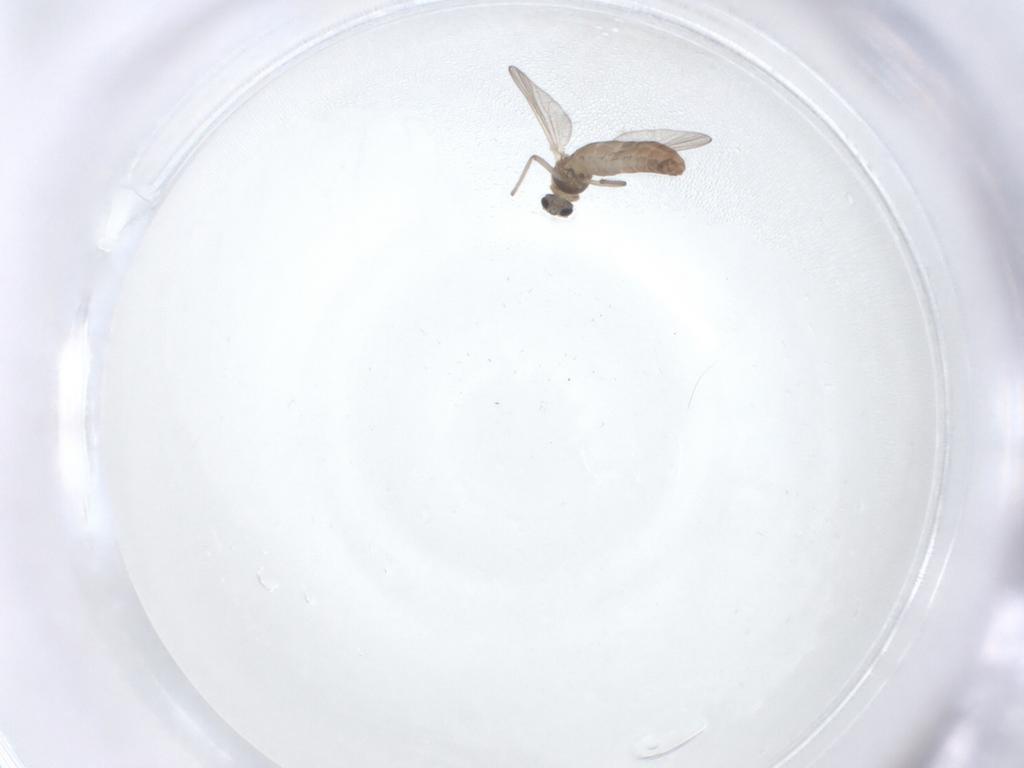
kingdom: Animalia
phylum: Arthropoda
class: Insecta
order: Diptera
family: Chironomidae
